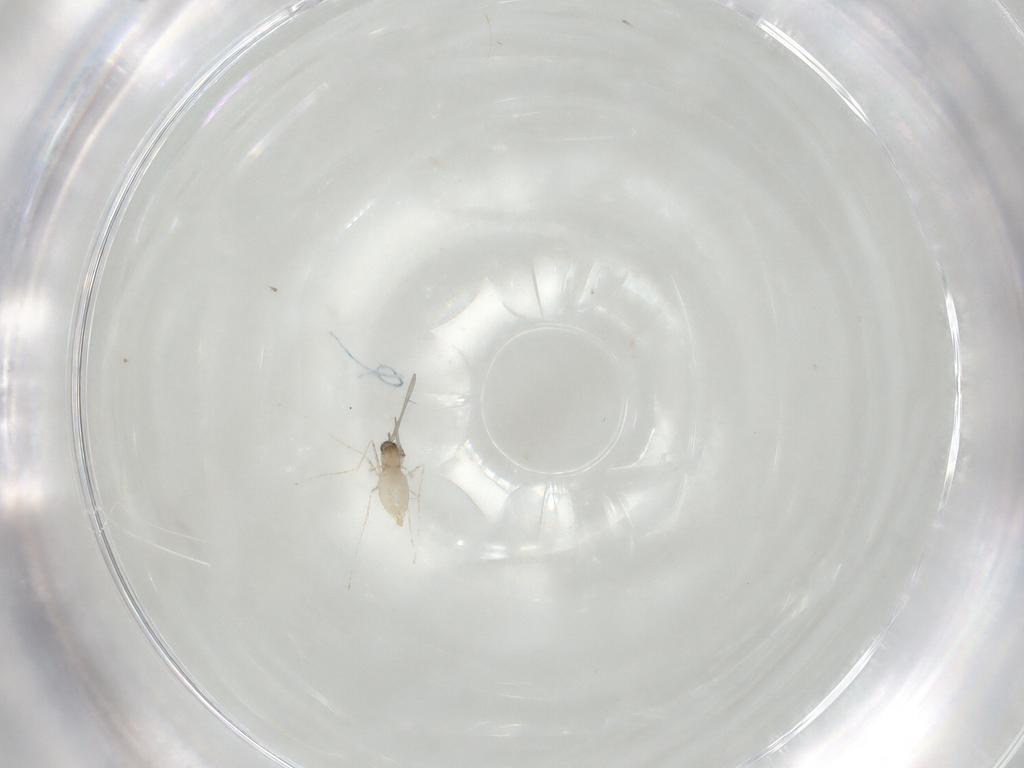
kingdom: Animalia
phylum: Arthropoda
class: Insecta
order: Diptera
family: Cecidomyiidae
